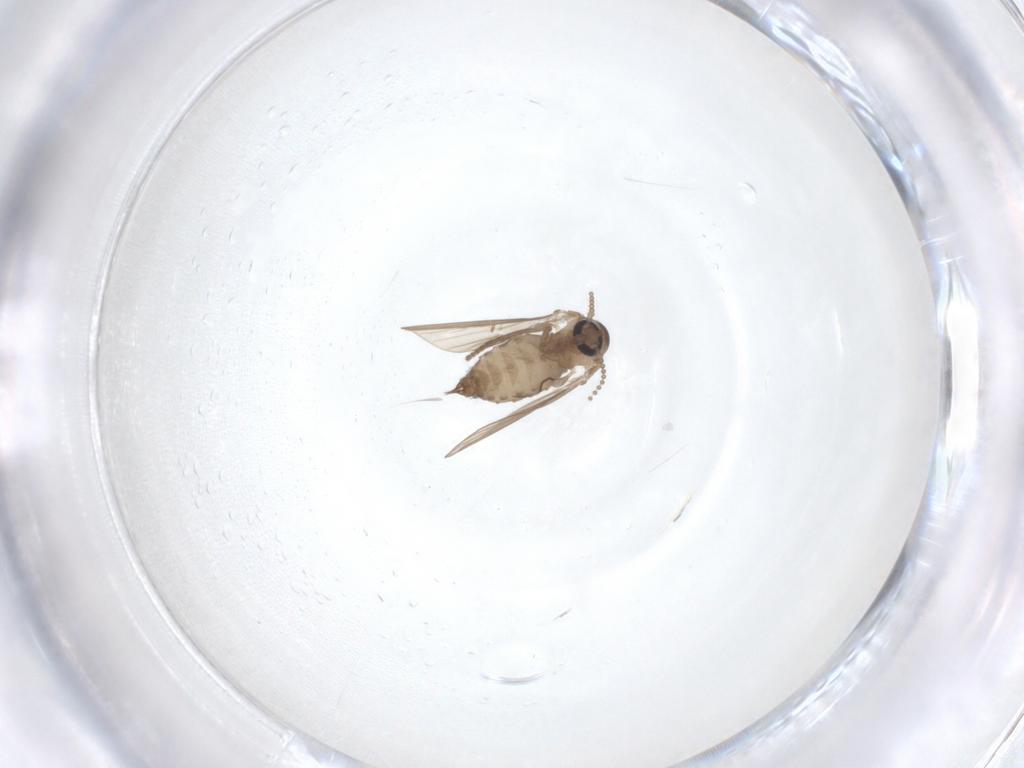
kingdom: Animalia
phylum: Arthropoda
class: Insecta
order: Diptera
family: Psychodidae
